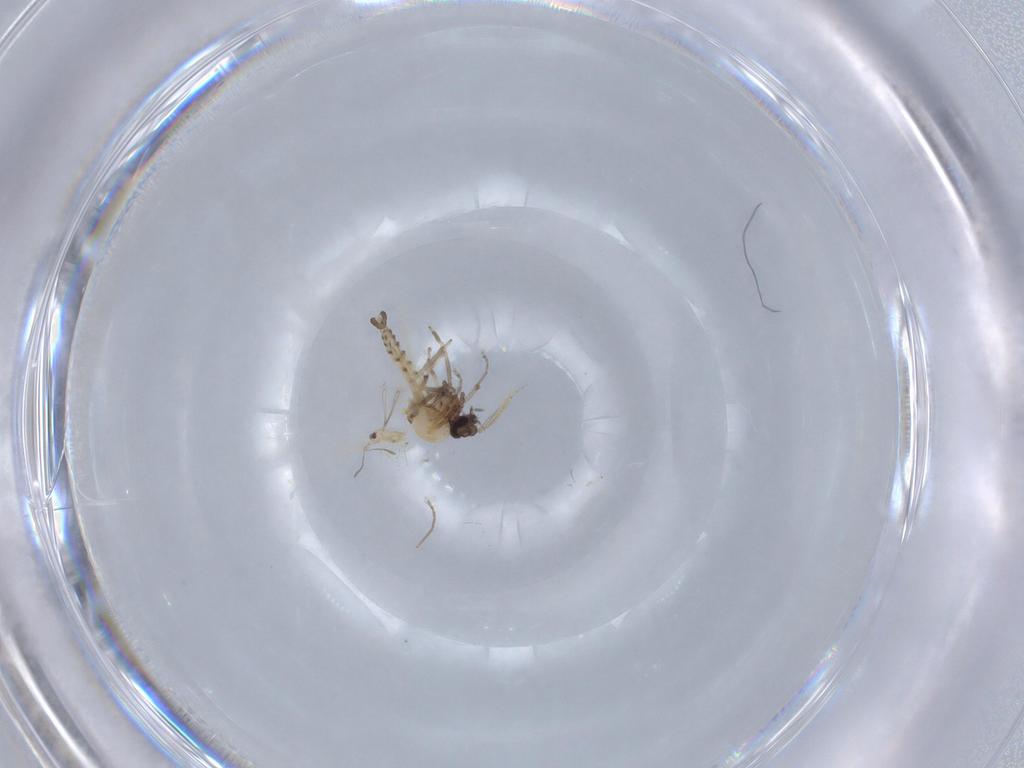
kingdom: Animalia
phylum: Arthropoda
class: Insecta
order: Diptera
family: Ceratopogonidae
